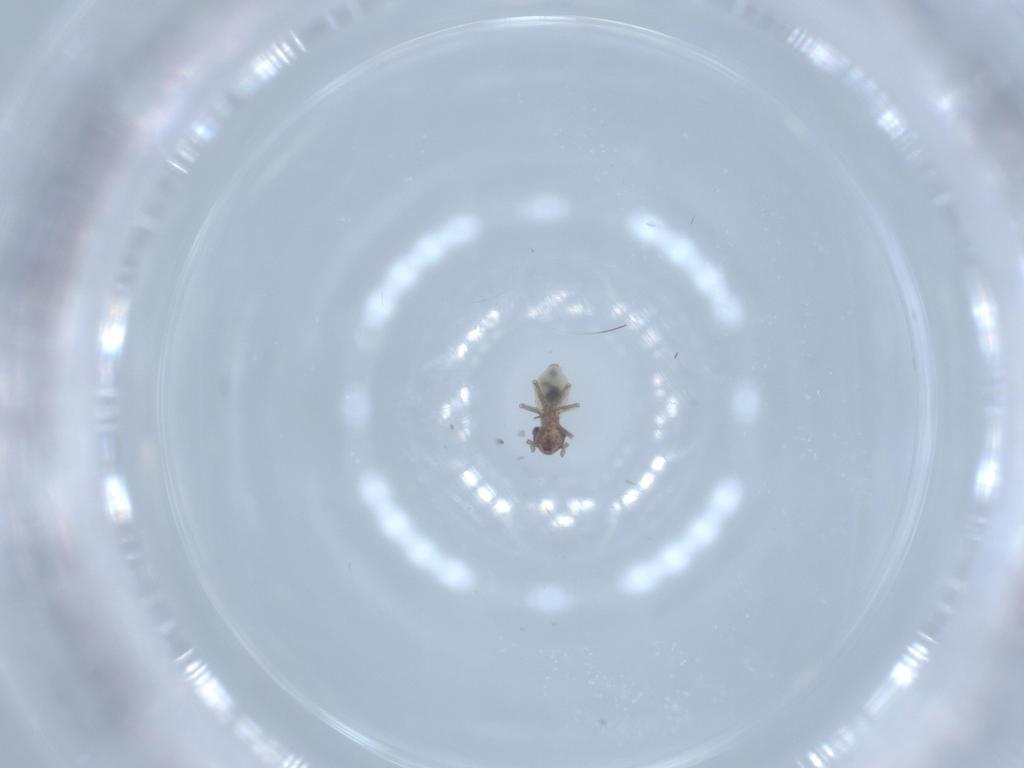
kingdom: Animalia
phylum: Arthropoda
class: Insecta
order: Psocodea
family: Lepidopsocidae
